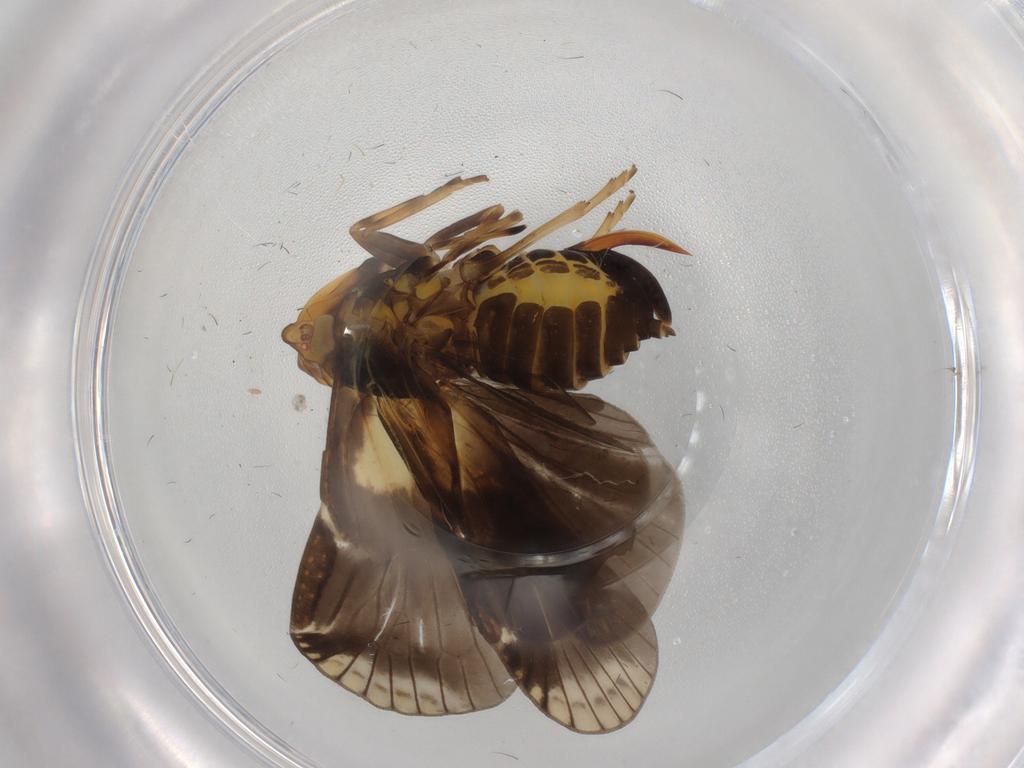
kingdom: Animalia
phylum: Arthropoda
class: Insecta
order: Hemiptera
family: Cixiidae
